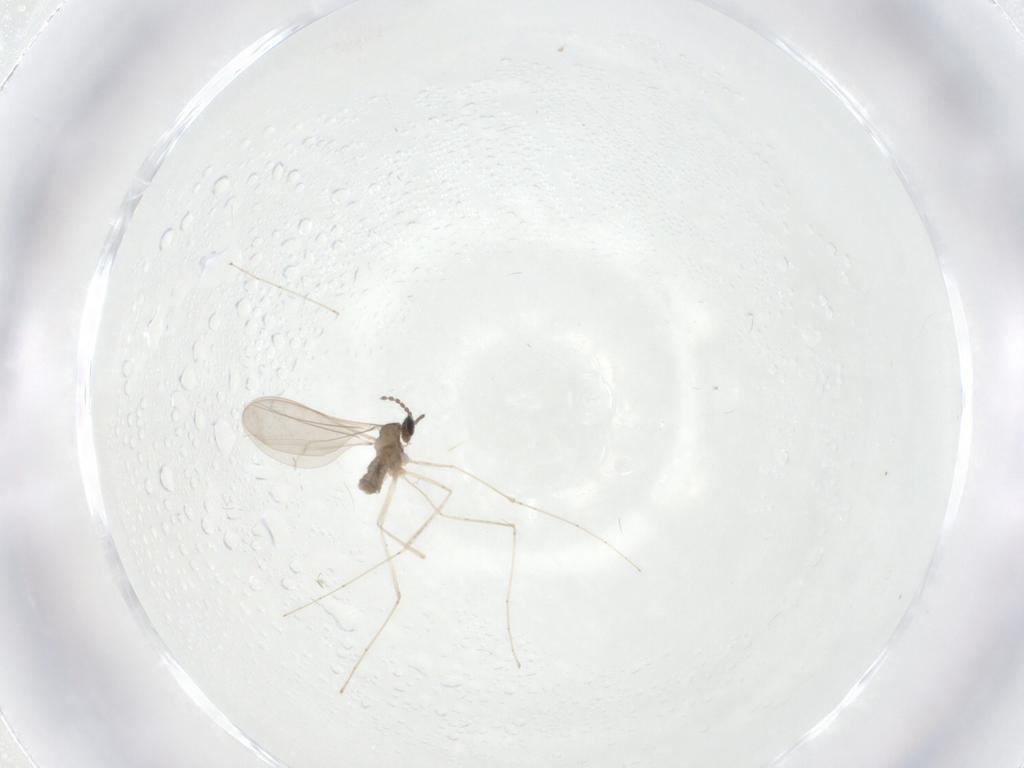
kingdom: Animalia
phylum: Arthropoda
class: Insecta
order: Diptera
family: Cecidomyiidae
